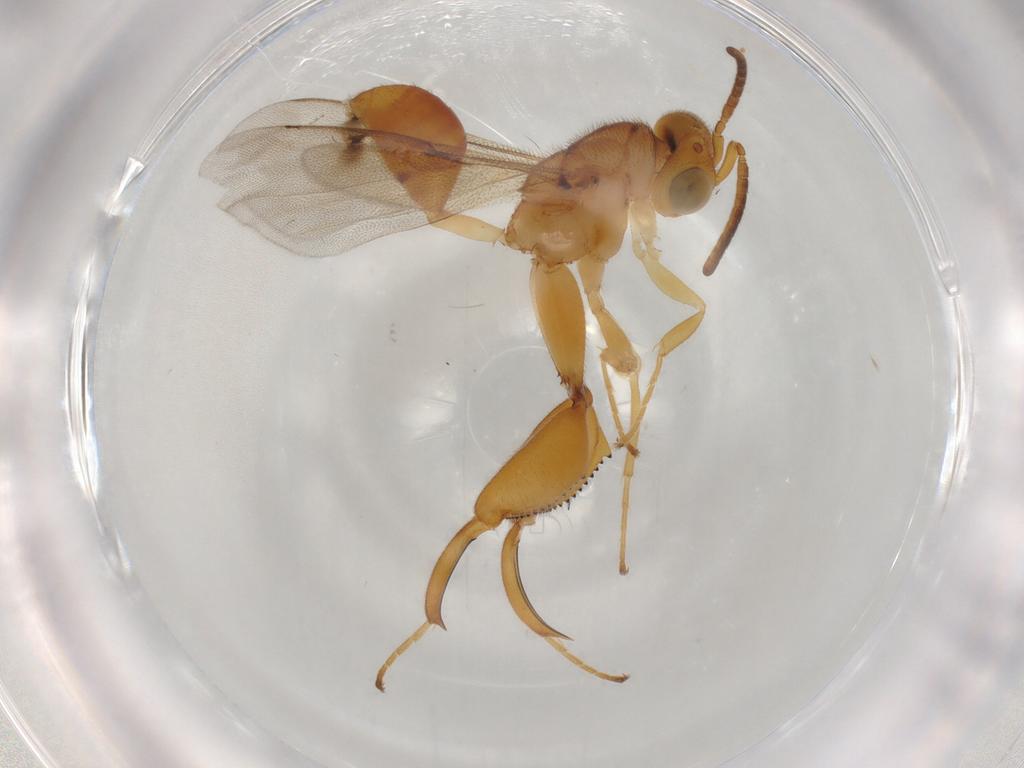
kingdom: Animalia
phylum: Arthropoda
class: Insecta
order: Hymenoptera
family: Chalcididae
